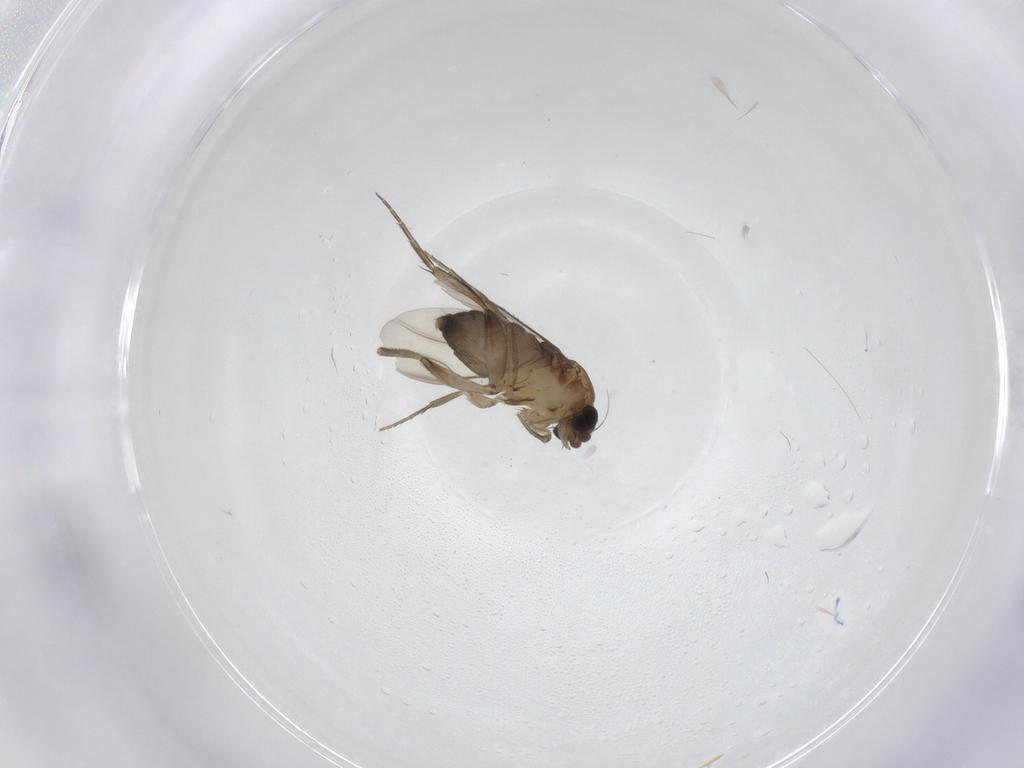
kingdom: Animalia
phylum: Arthropoda
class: Insecta
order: Diptera
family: Phoridae
